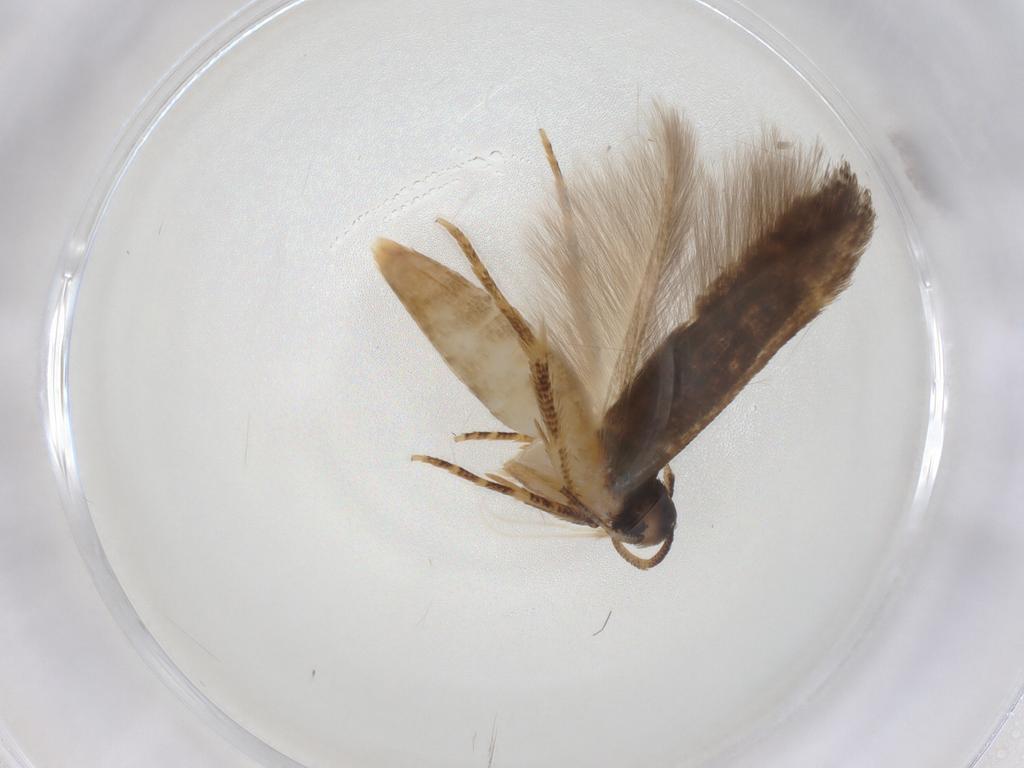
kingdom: Animalia
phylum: Arthropoda
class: Insecta
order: Lepidoptera
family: Cosmopterigidae
